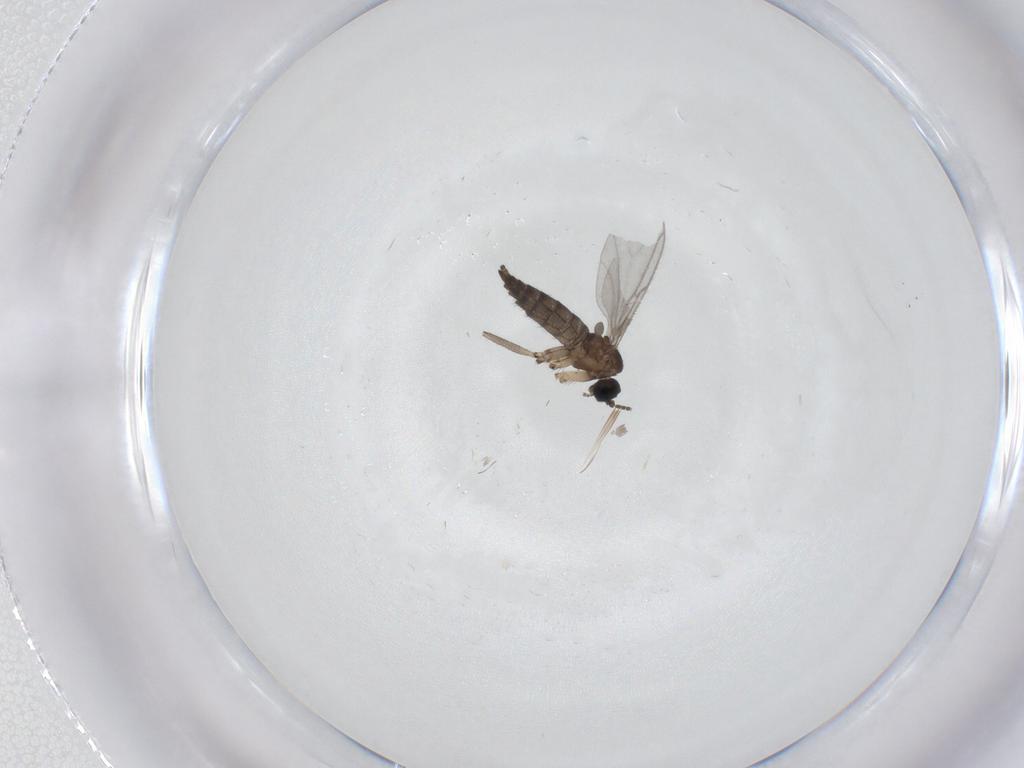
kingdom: Animalia
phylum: Arthropoda
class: Insecta
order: Diptera
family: Sciaridae
